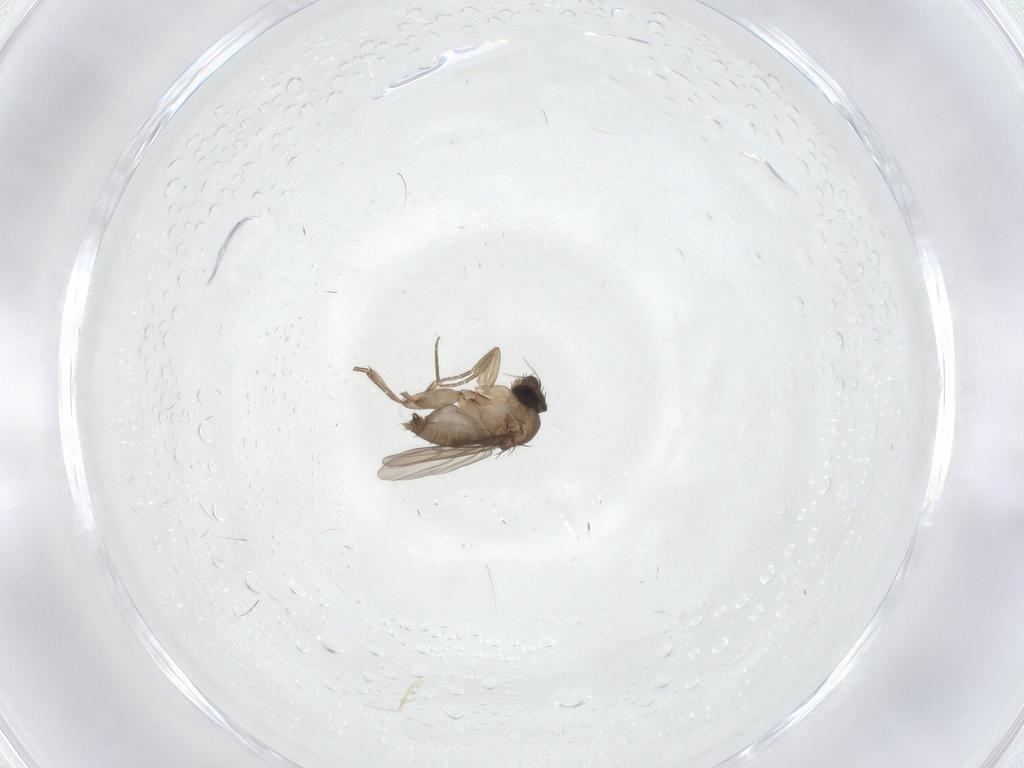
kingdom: Animalia
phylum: Arthropoda
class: Insecta
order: Diptera
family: Phoridae
